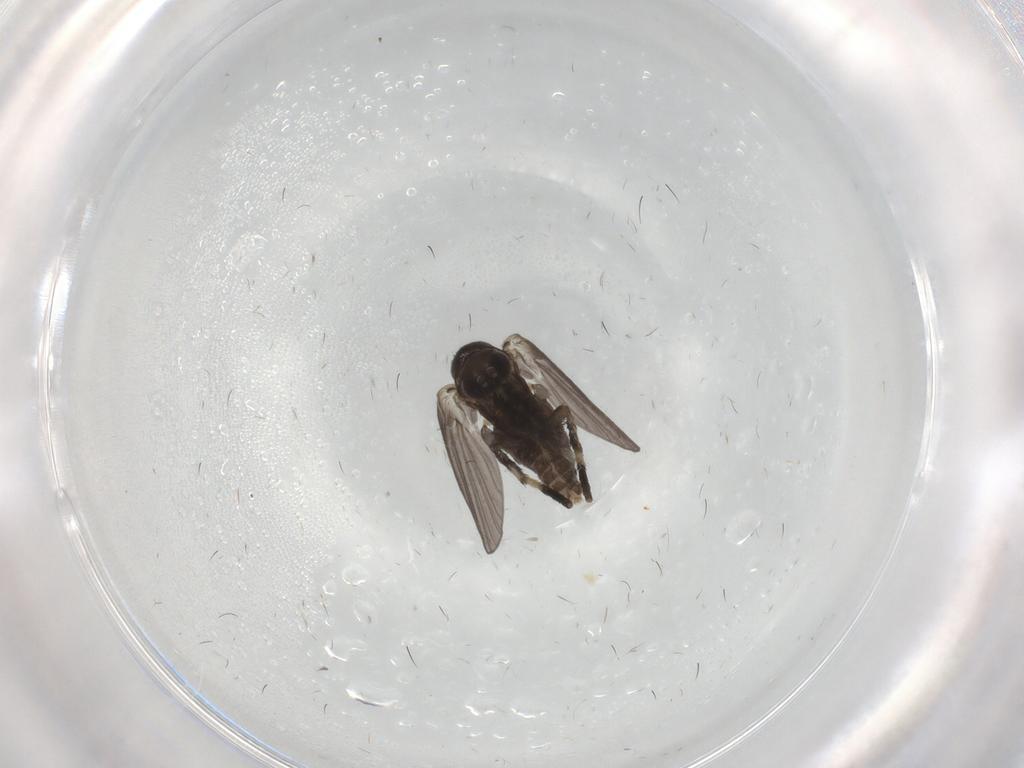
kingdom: Animalia
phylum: Arthropoda
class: Insecta
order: Diptera
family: Psychodidae
